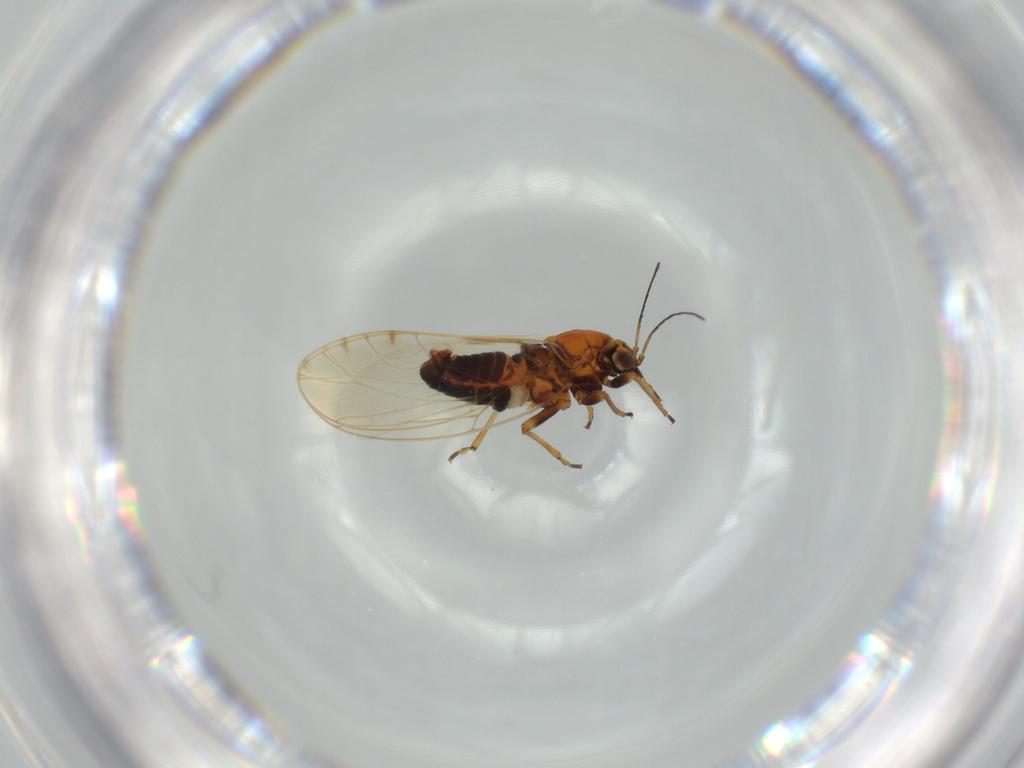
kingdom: Animalia
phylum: Arthropoda
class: Insecta
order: Hemiptera
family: Triozidae
